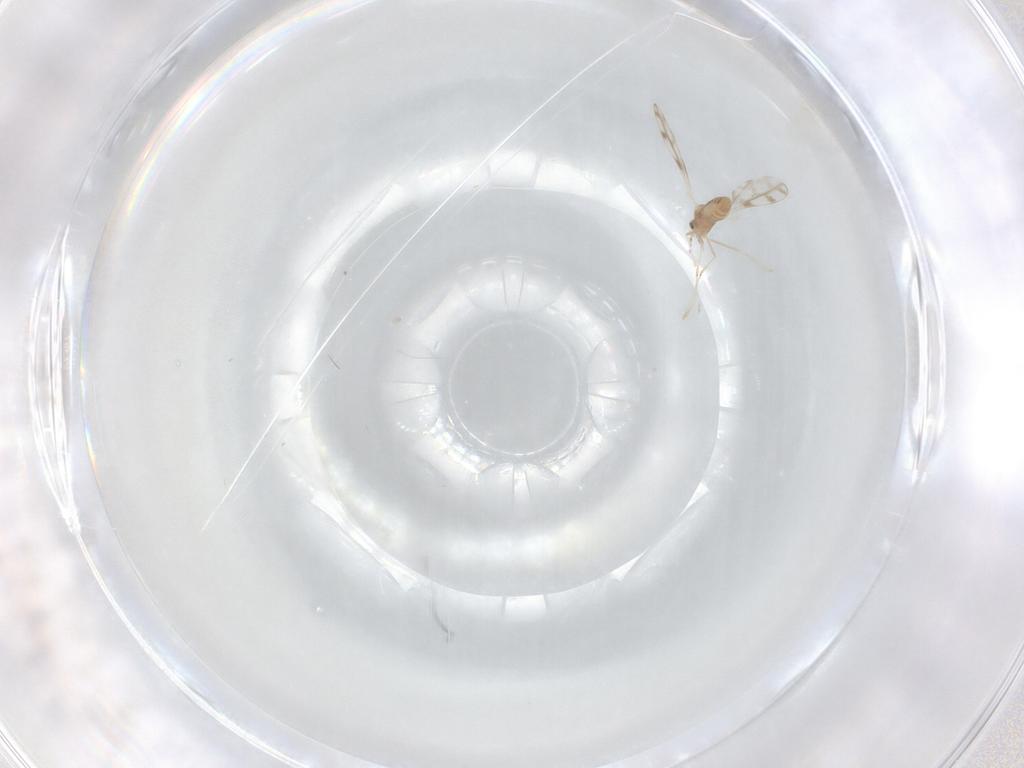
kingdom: Animalia
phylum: Arthropoda
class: Insecta
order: Diptera
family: Cecidomyiidae
